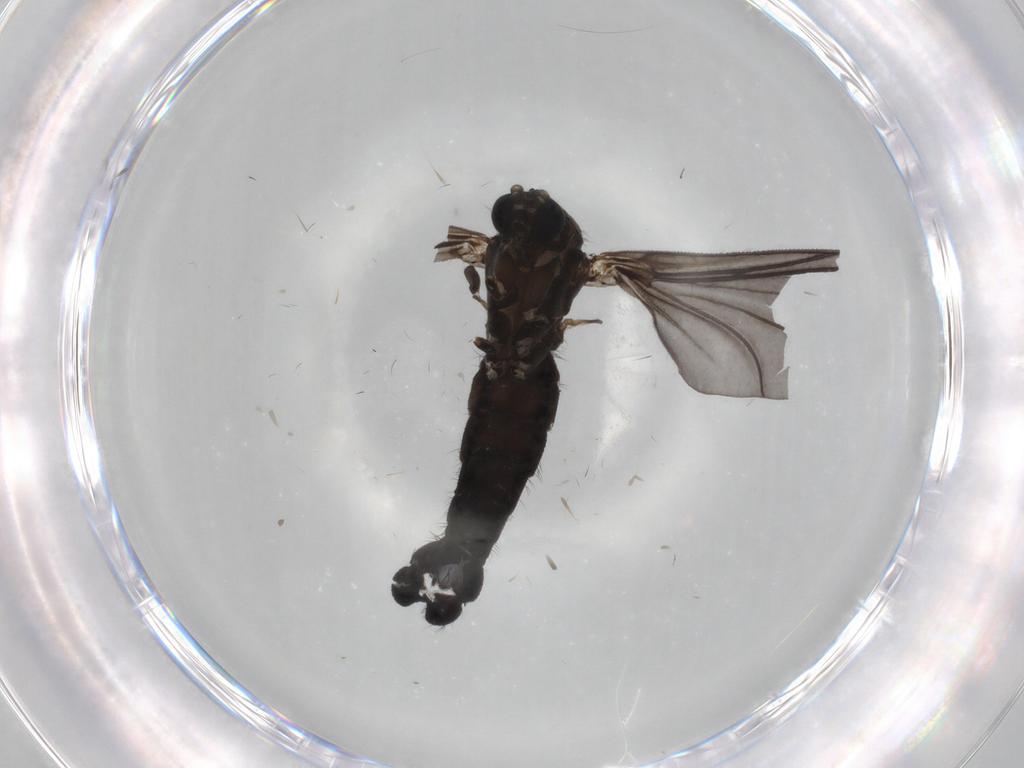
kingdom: Animalia
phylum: Arthropoda
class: Insecta
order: Diptera
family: Sciaridae
